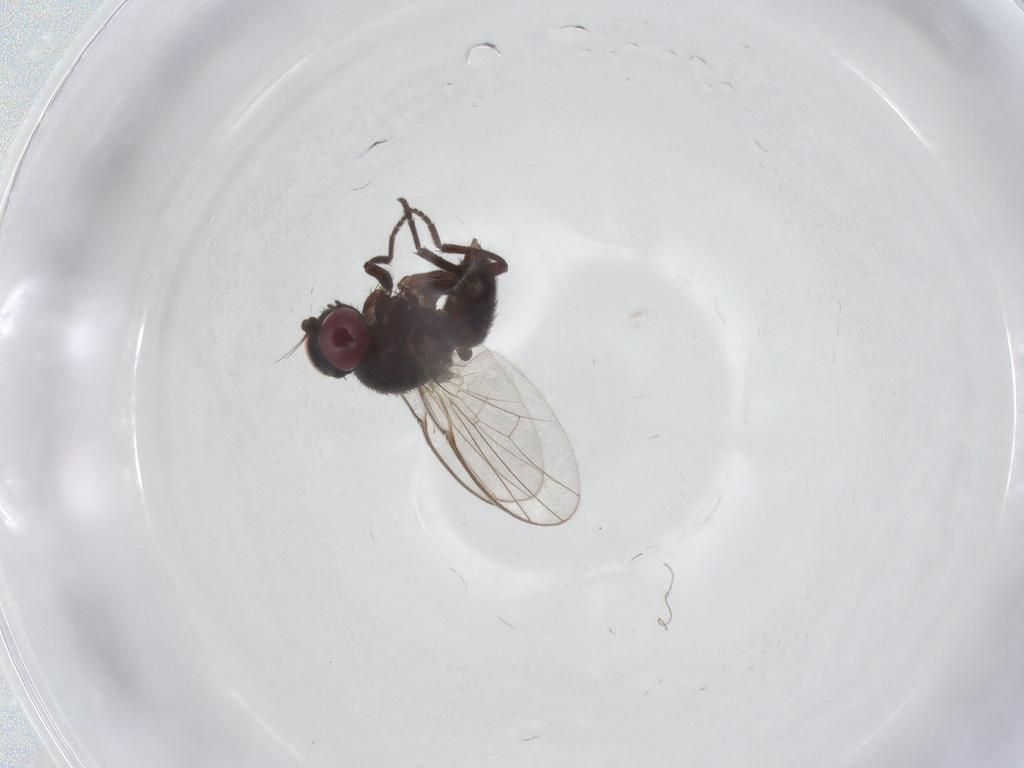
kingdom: Animalia
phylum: Arthropoda
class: Insecta
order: Diptera
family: Agromyzidae
